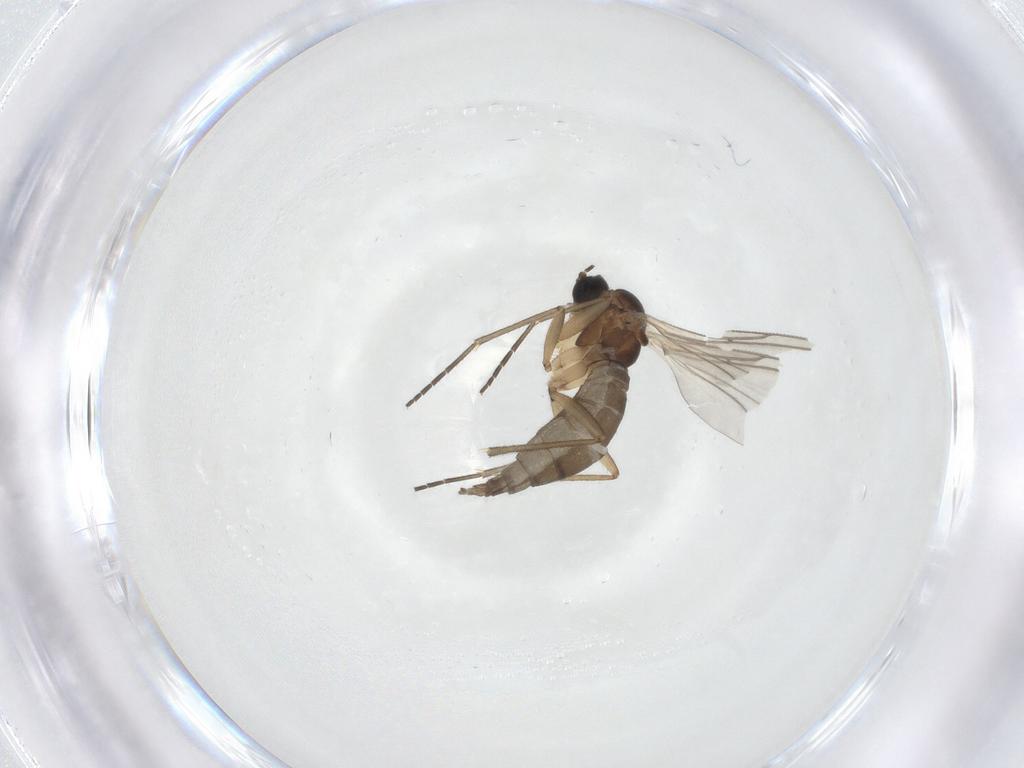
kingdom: Animalia
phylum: Arthropoda
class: Insecta
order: Diptera
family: Sciaridae
